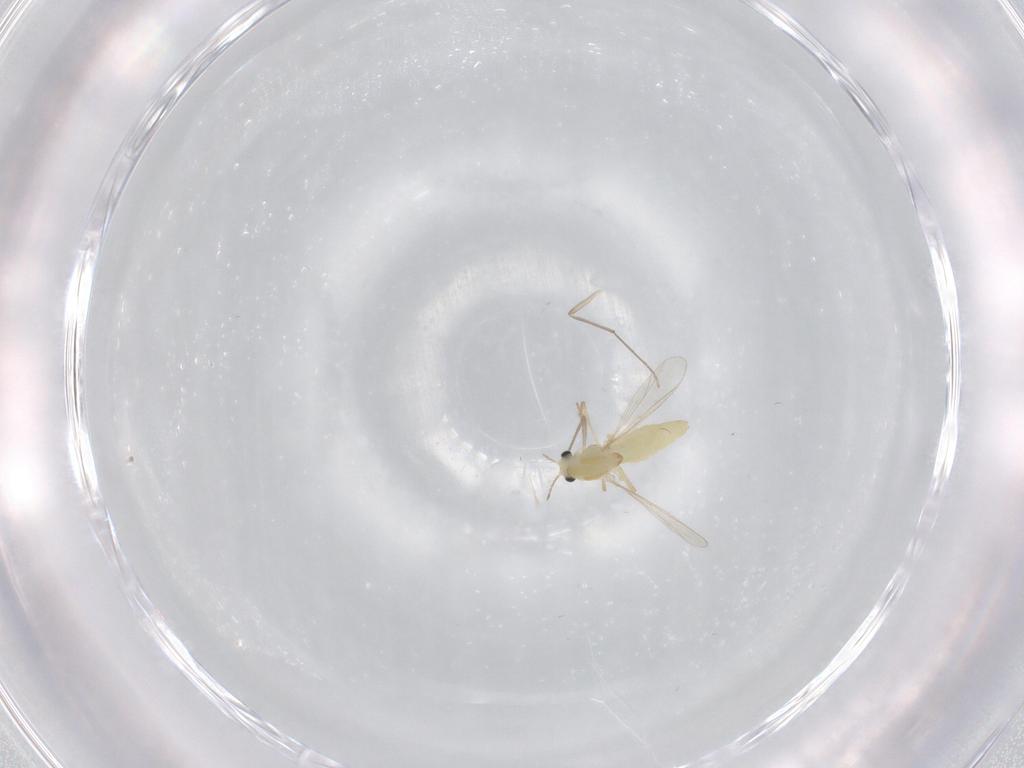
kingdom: Animalia
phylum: Arthropoda
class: Insecta
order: Diptera
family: Chironomidae
